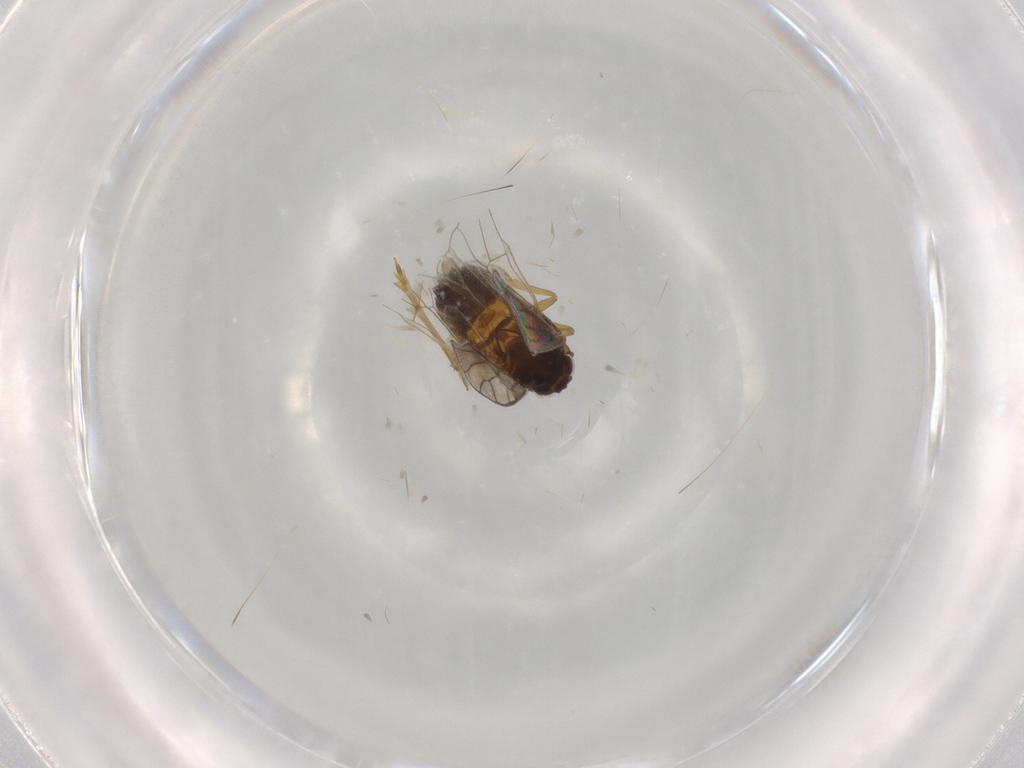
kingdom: Animalia
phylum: Arthropoda
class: Insecta
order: Hemiptera
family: Delphacidae
